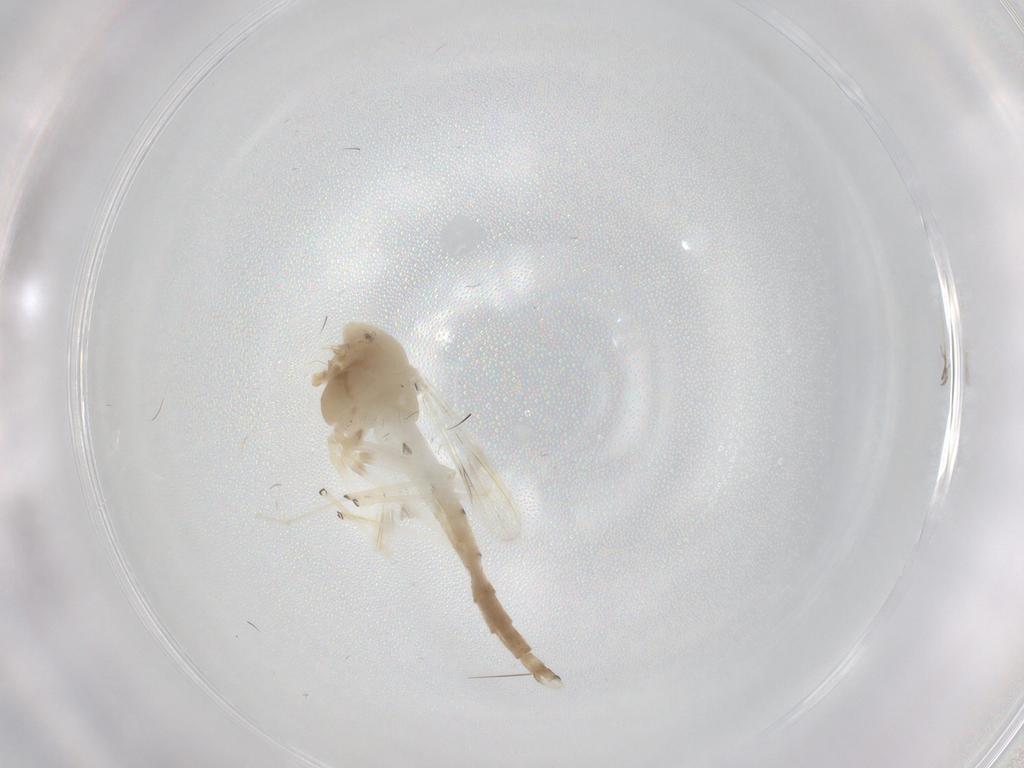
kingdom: Animalia
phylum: Arthropoda
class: Insecta
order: Diptera
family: Chironomidae
